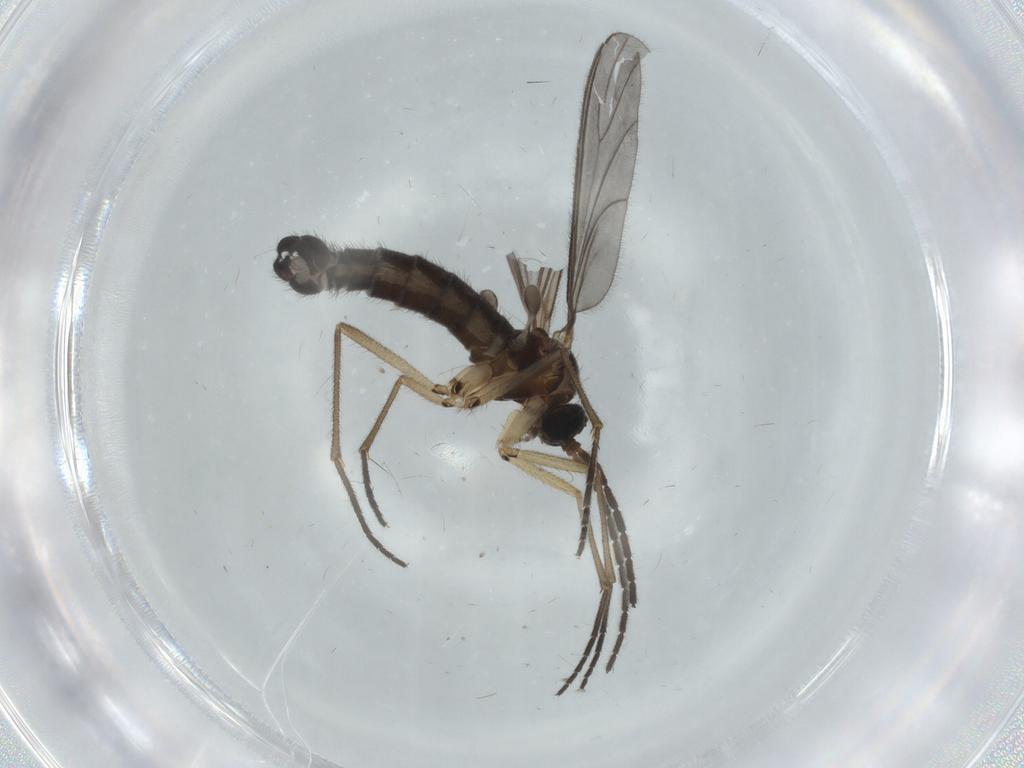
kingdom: Animalia
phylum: Arthropoda
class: Insecta
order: Diptera
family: Sciaridae
